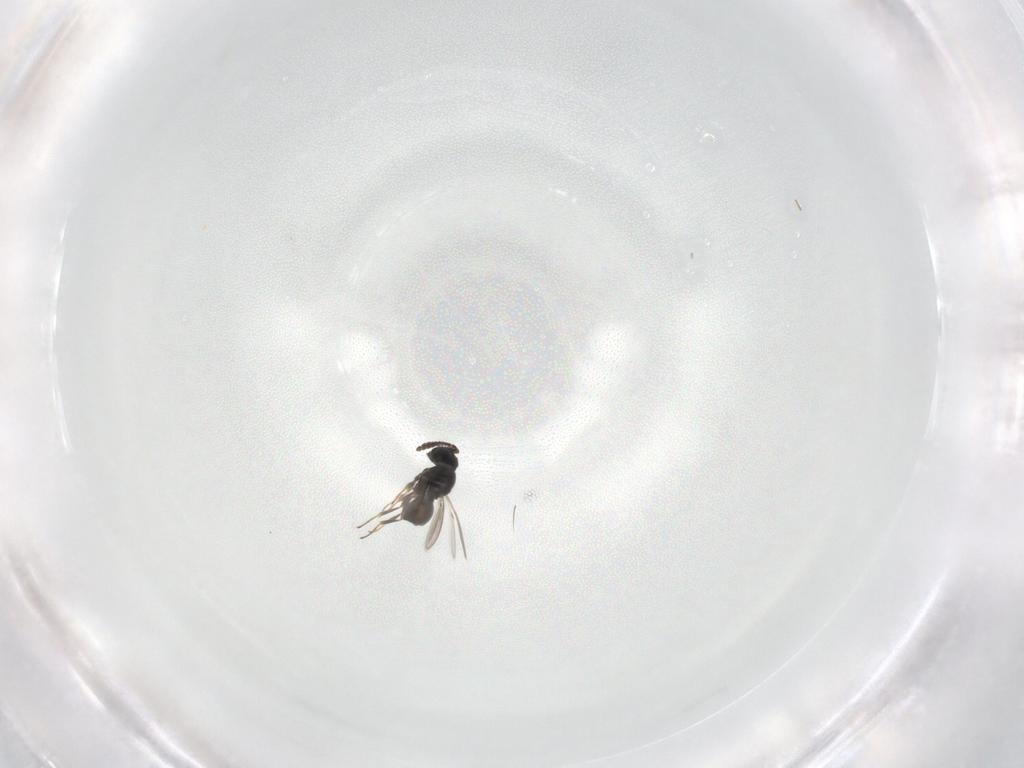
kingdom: Animalia
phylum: Arthropoda
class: Insecta
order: Hymenoptera
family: Scelionidae
